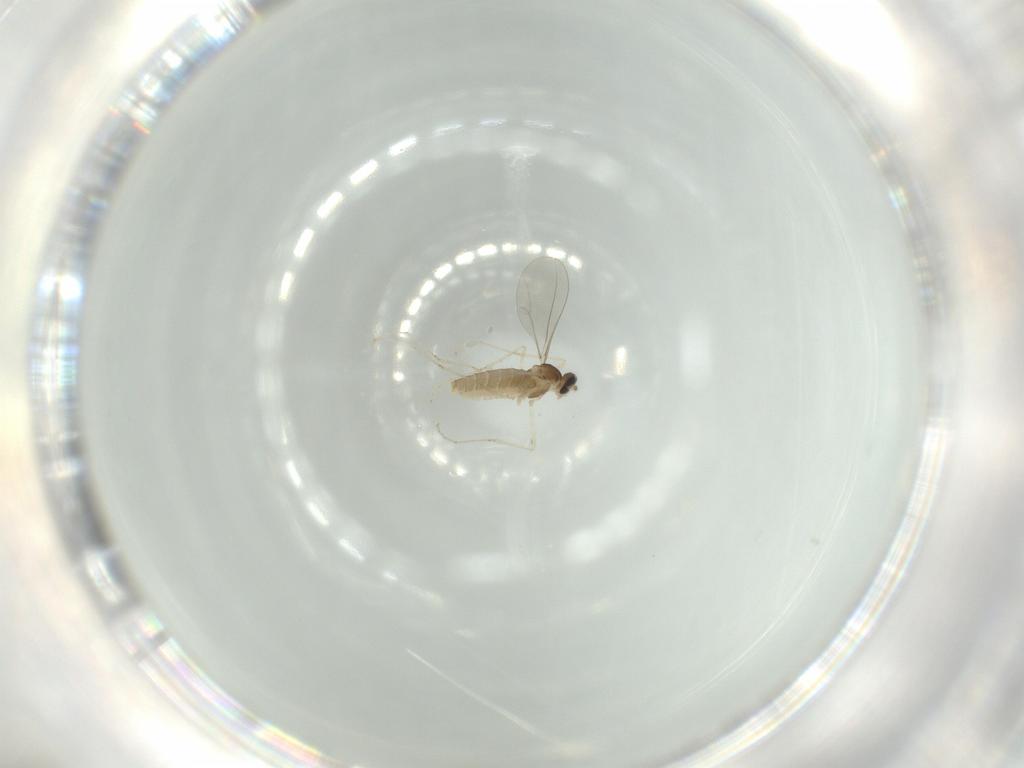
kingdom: Animalia
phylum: Arthropoda
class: Insecta
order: Diptera
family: Cecidomyiidae
